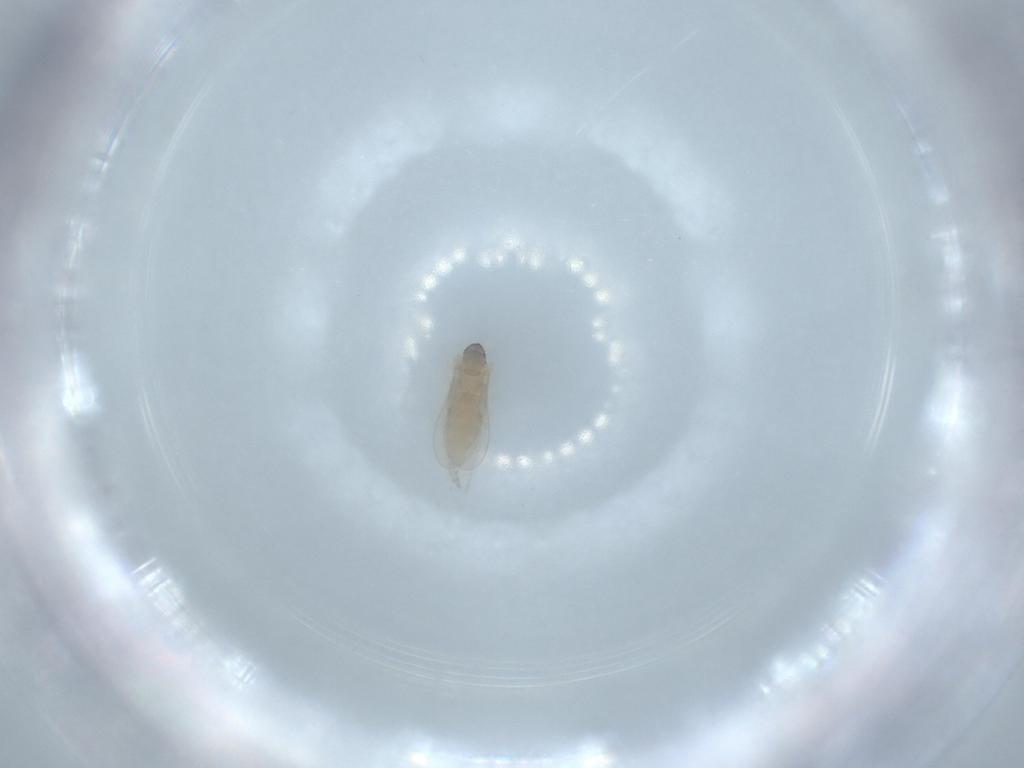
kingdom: Animalia
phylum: Arthropoda
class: Insecta
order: Diptera
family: Cecidomyiidae
